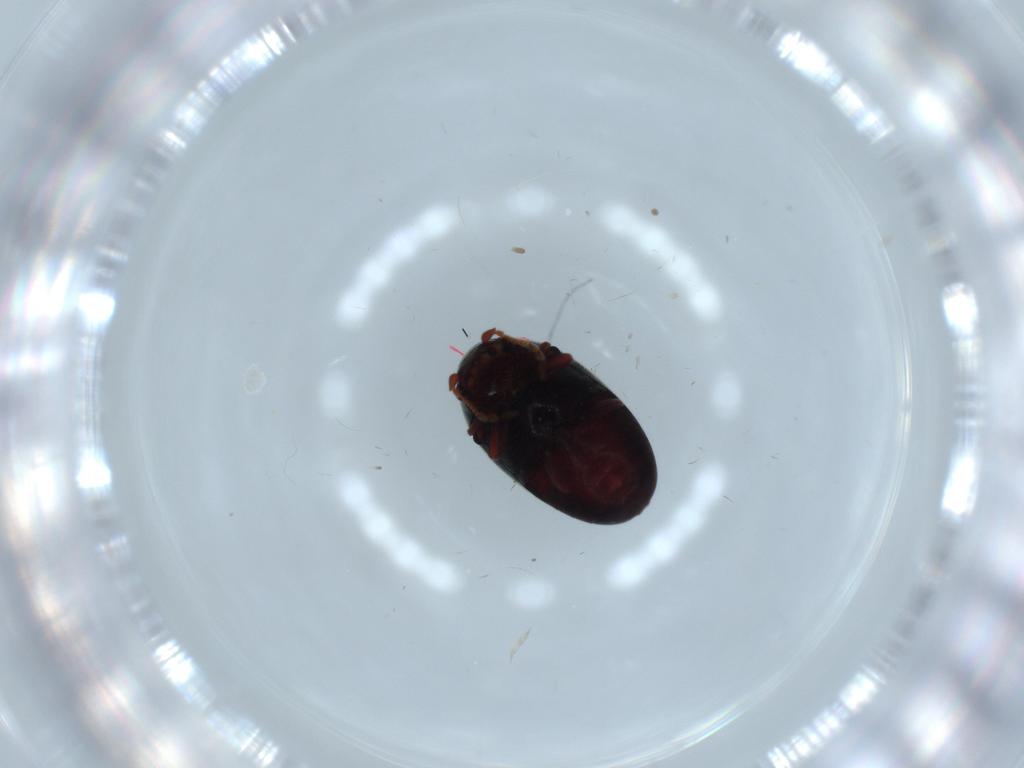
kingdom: Animalia
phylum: Arthropoda
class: Insecta
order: Coleoptera
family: Ptinidae
